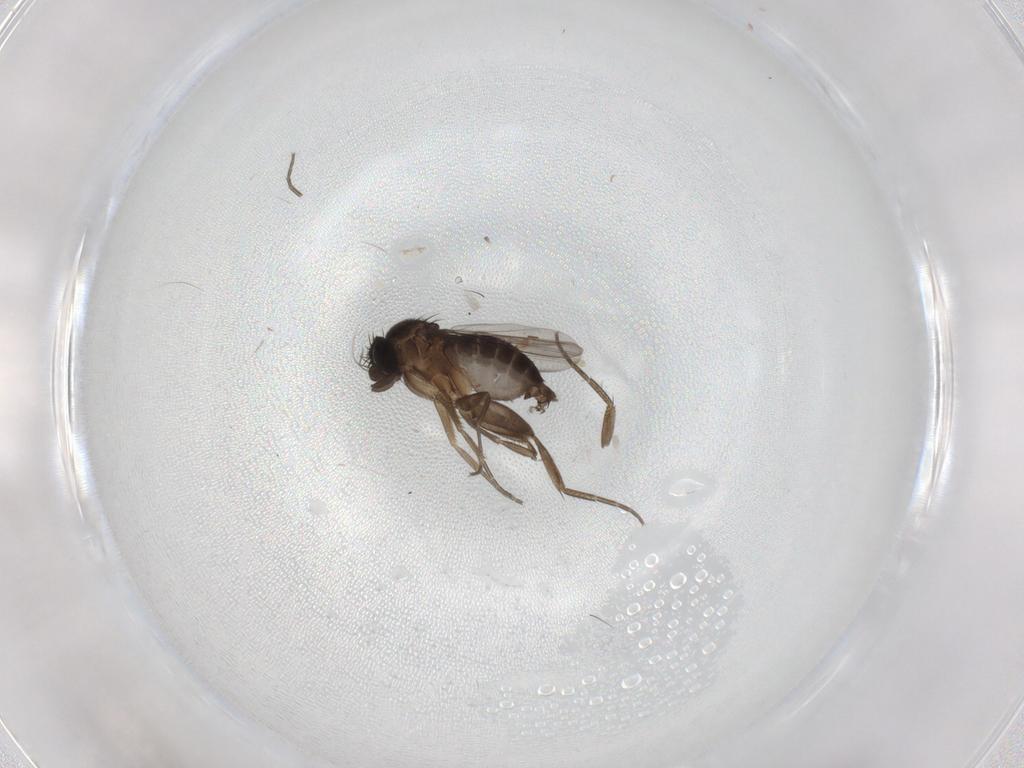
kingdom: Animalia
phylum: Arthropoda
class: Insecta
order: Diptera
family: Phoridae
